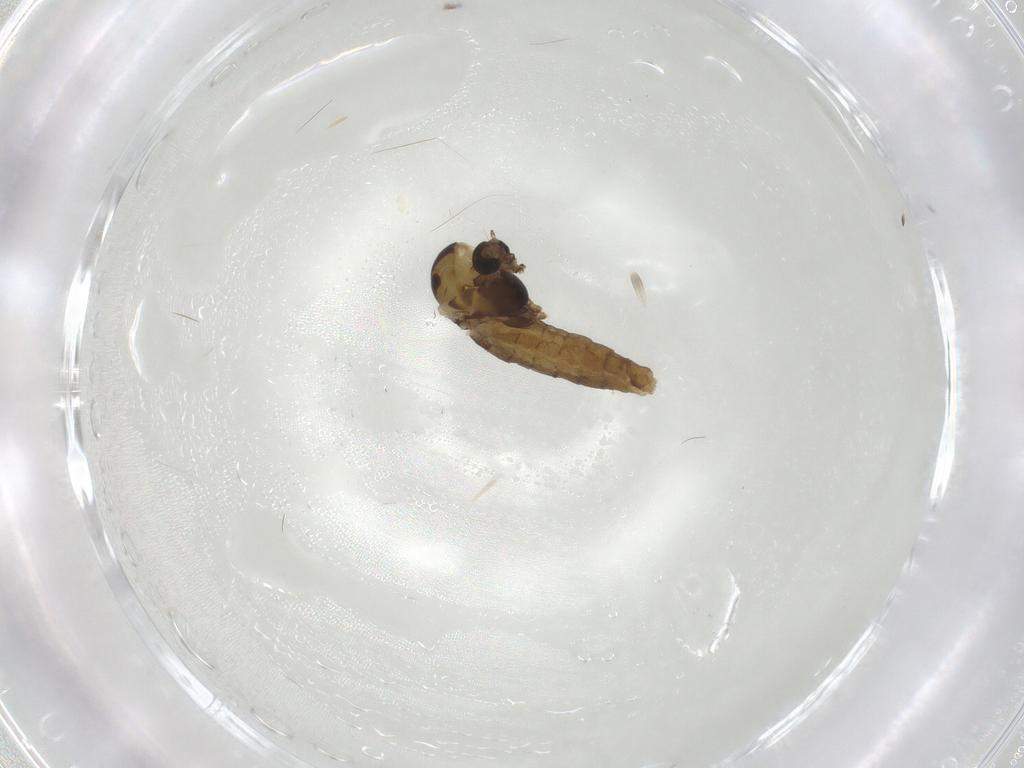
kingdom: Animalia
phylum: Arthropoda
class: Insecta
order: Diptera
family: Chironomidae
